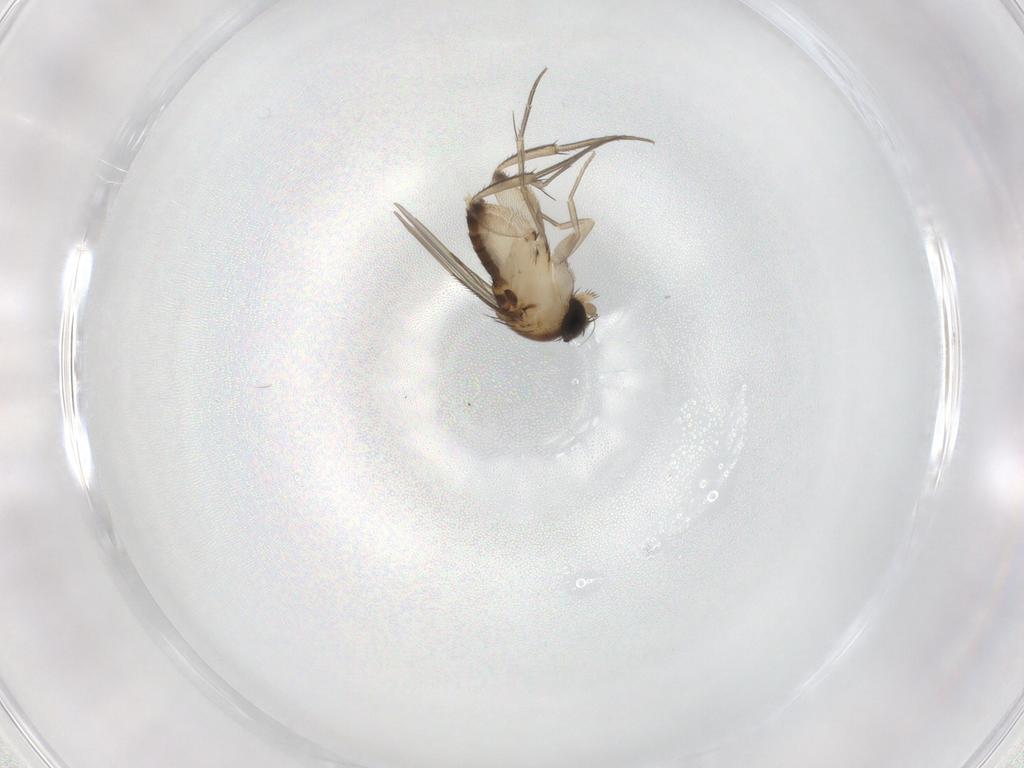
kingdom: Animalia
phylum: Arthropoda
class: Insecta
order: Diptera
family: Phoridae
